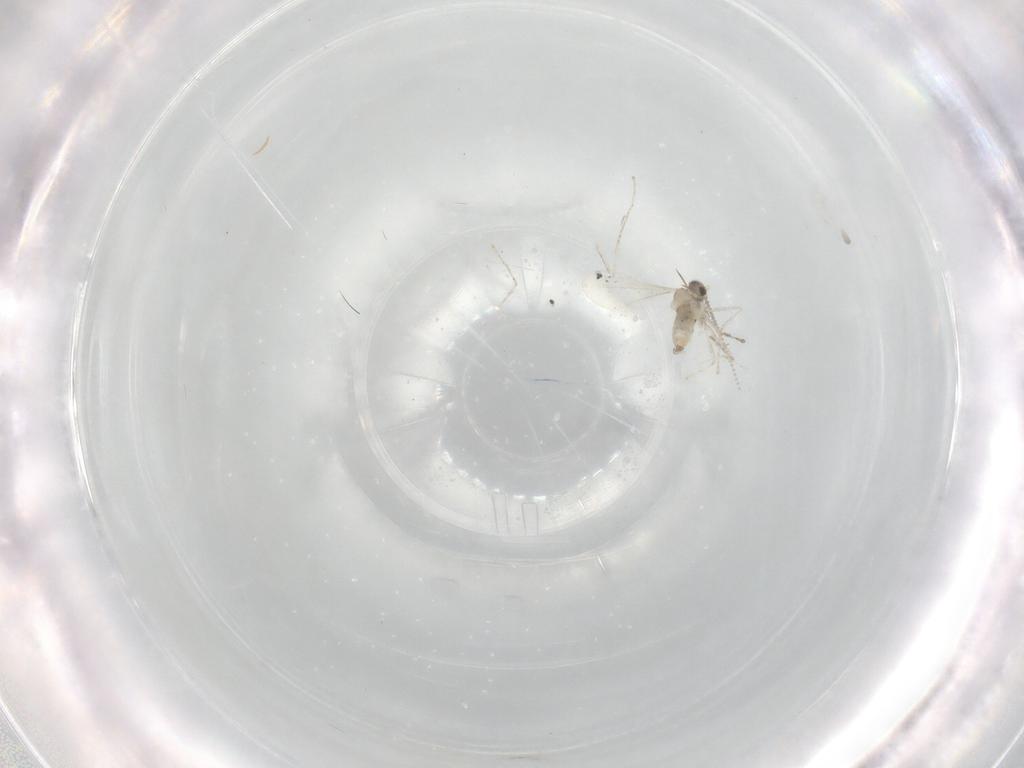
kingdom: Animalia
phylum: Arthropoda
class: Insecta
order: Diptera
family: Cecidomyiidae
